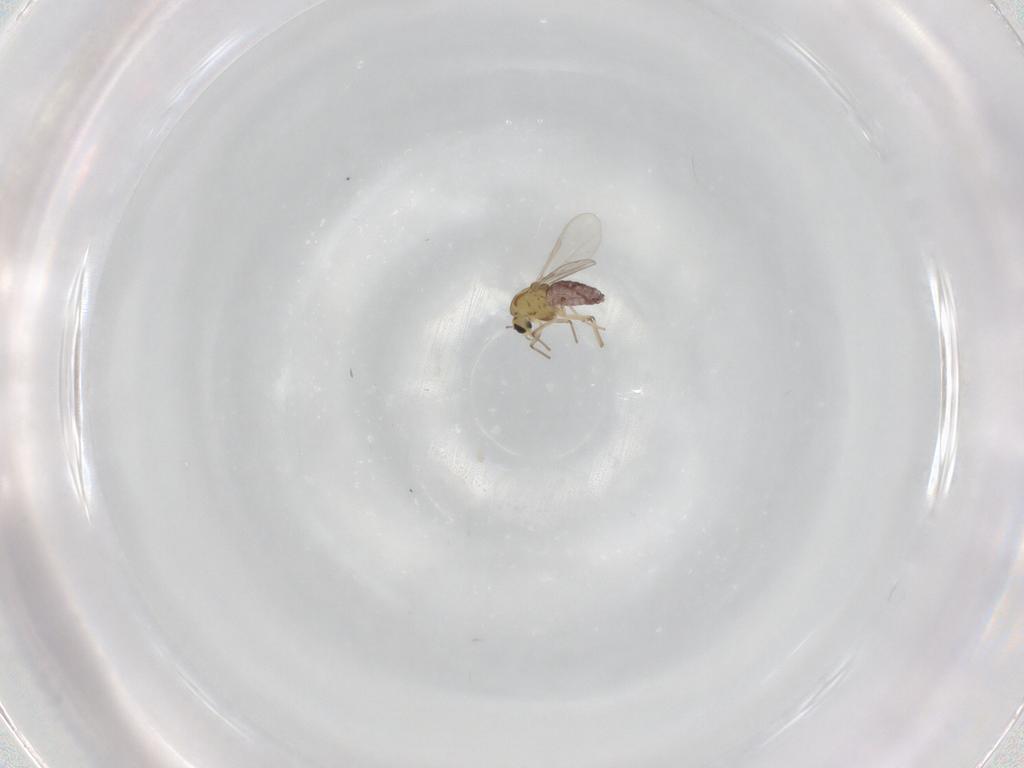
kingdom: Animalia
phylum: Arthropoda
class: Insecta
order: Diptera
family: Chironomidae
